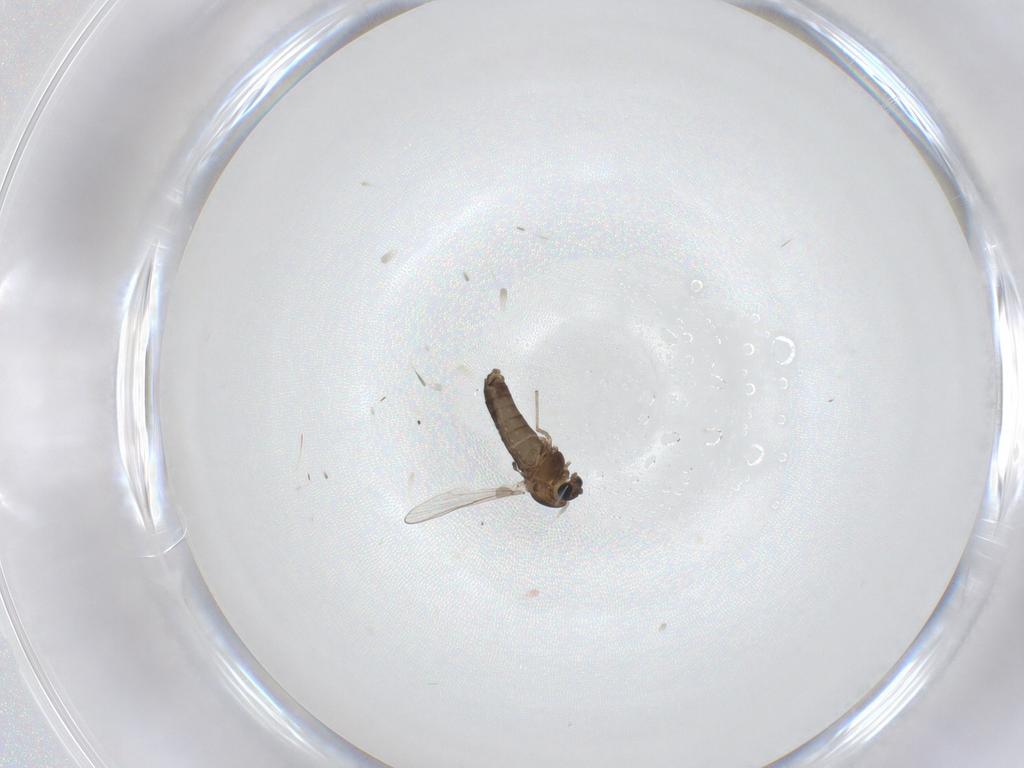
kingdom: Animalia
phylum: Arthropoda
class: Insecta
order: Diptera
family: Chironomidae
